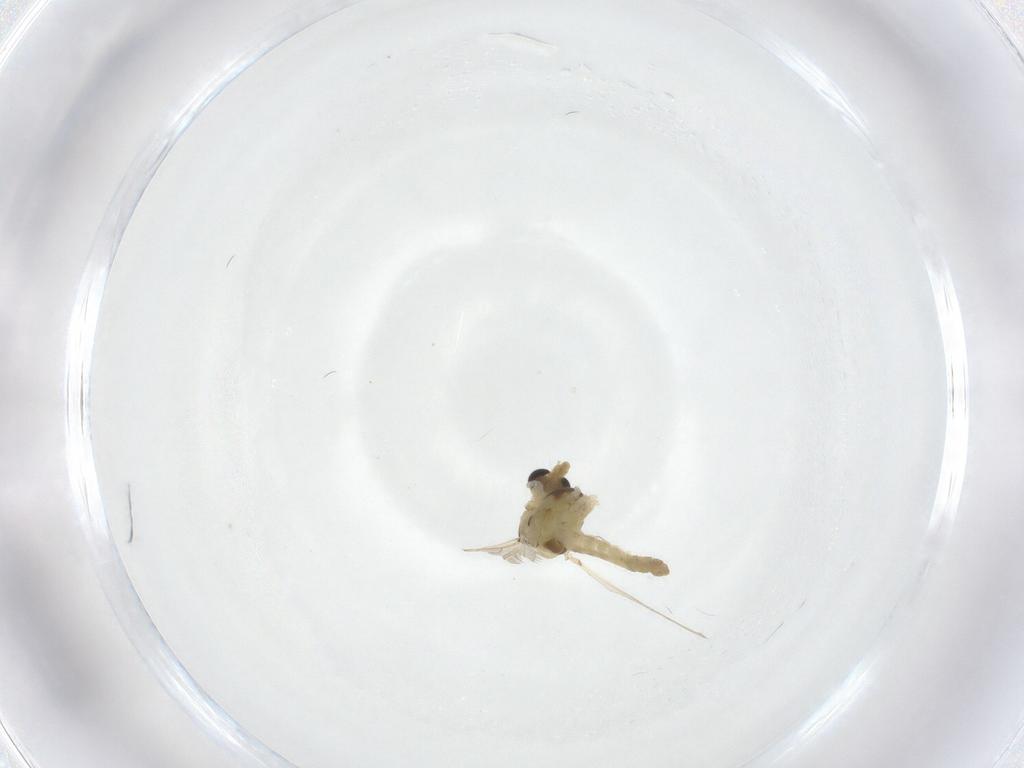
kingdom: Animalia
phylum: Arthropoda
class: Insecta
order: Diptera
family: Chironomidae
